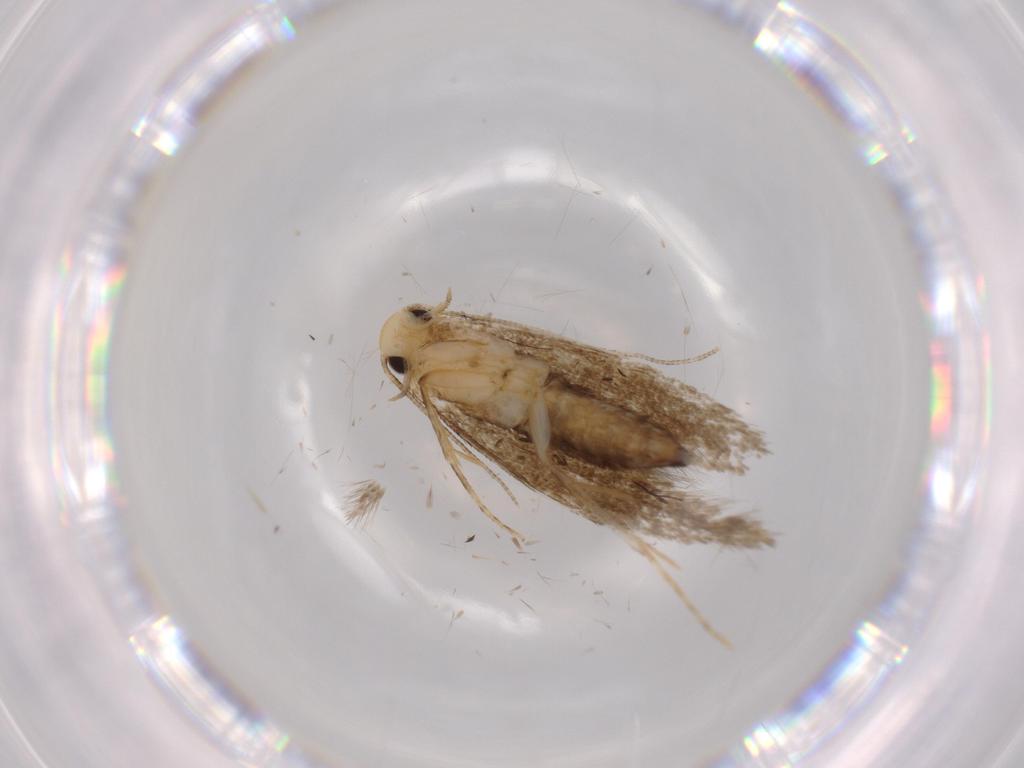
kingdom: Animalia
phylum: Arthropoda
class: Insecta
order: Lepidoptera
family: Tineidae
